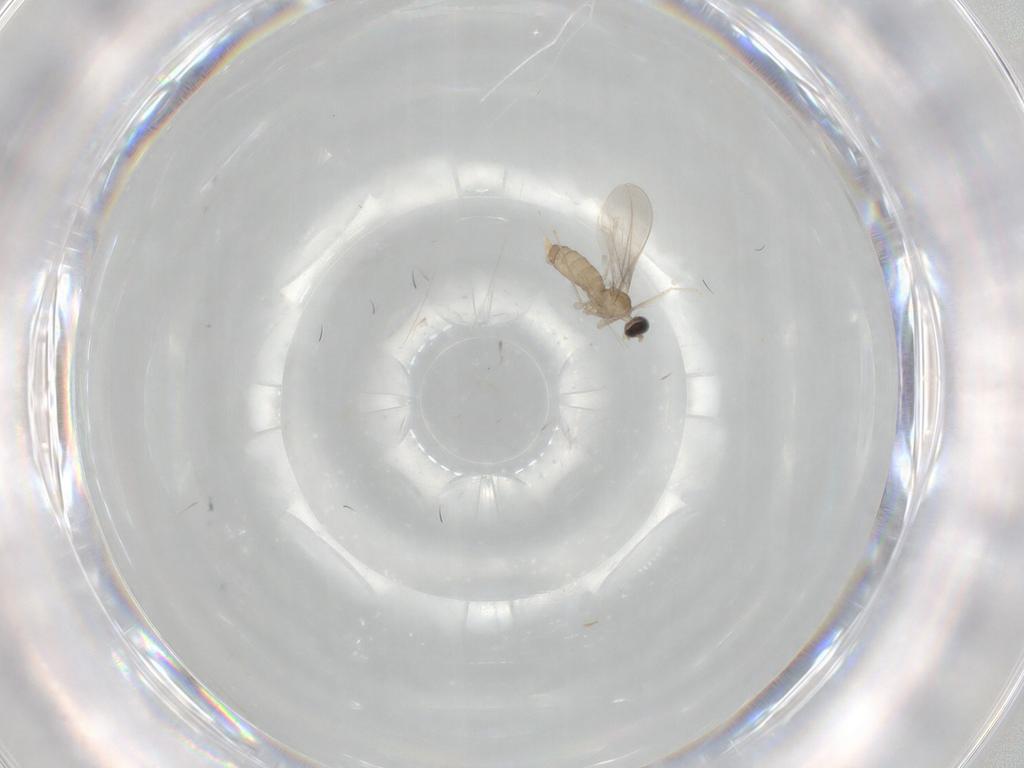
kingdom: Animalia
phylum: Arthropoda
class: Insecta
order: Diptera
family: Cecidomyiidae
